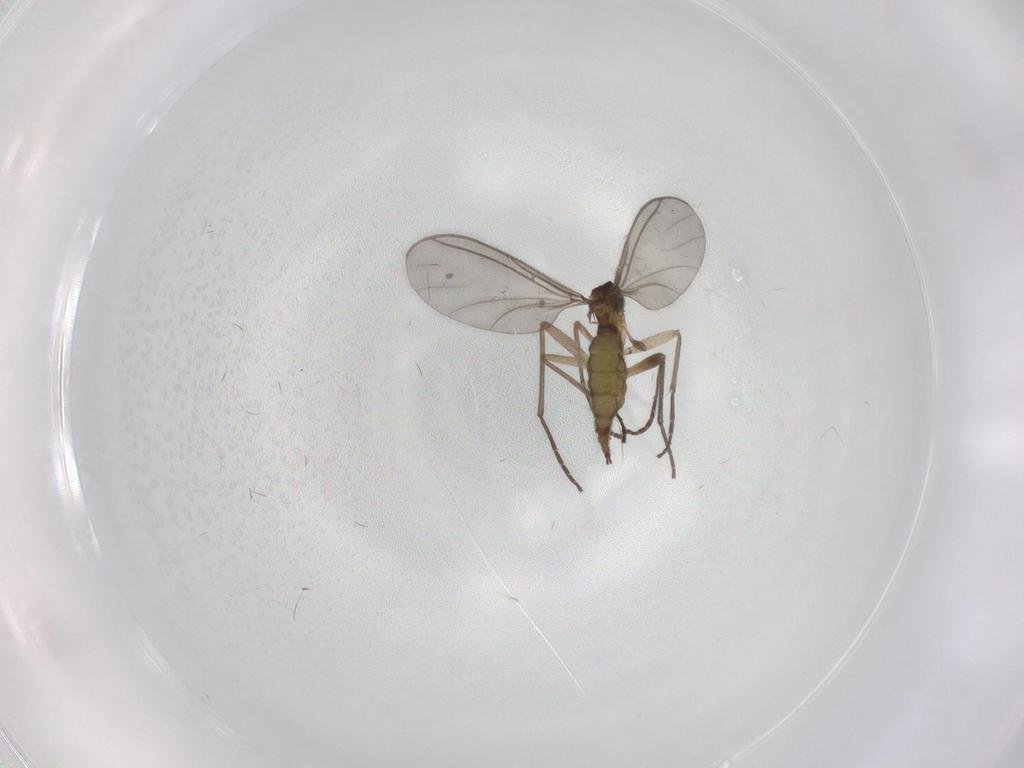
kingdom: Animalia
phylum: Arthropoda
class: Insecta
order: Diptera
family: Sciaridae
